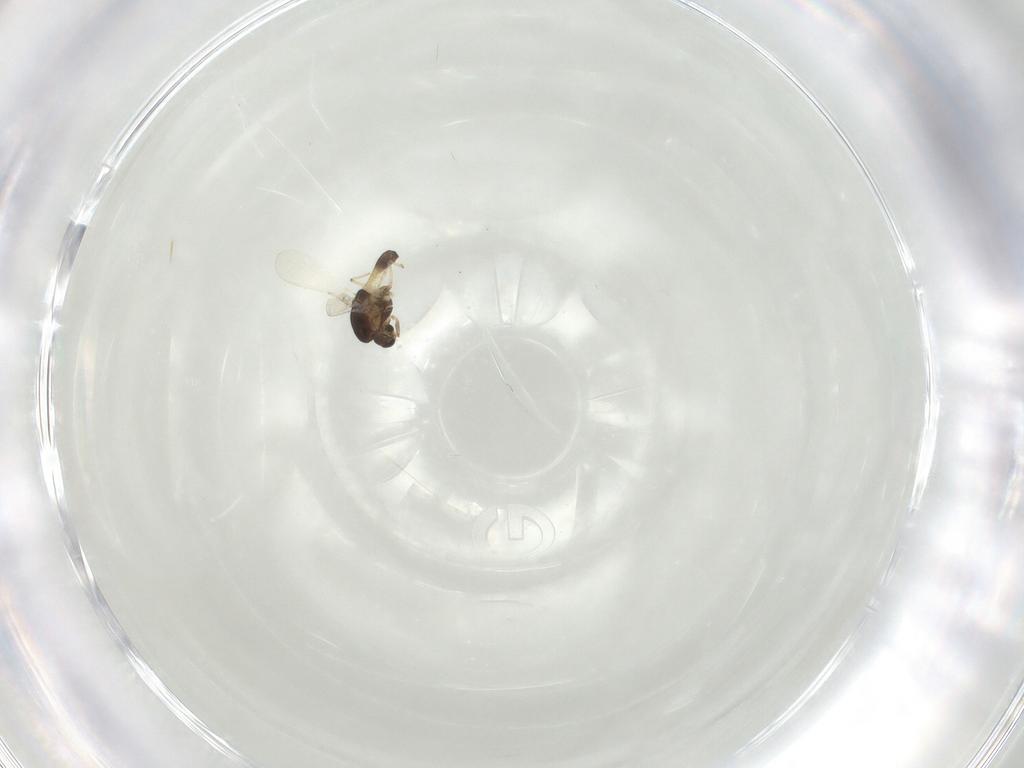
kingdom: Animalia
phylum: Arthropoda
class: Insecta
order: Diptera
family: Chironomidae
